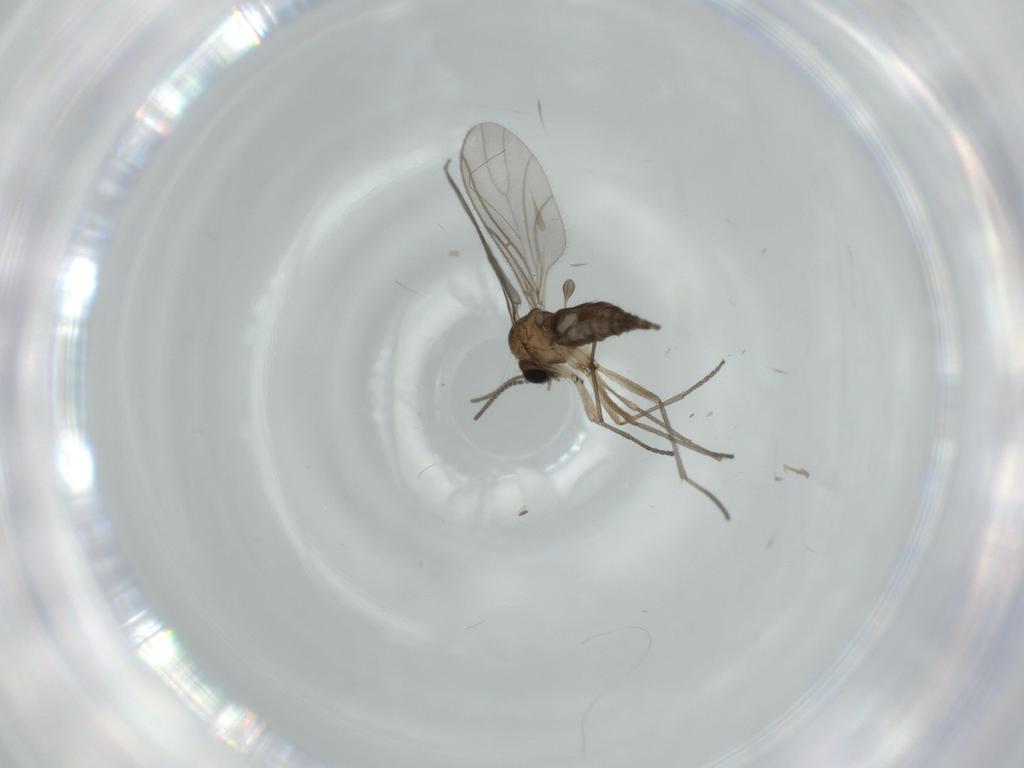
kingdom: Animalia
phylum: Arthropoda
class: Insecta
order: Diptera
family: Sciaridae
